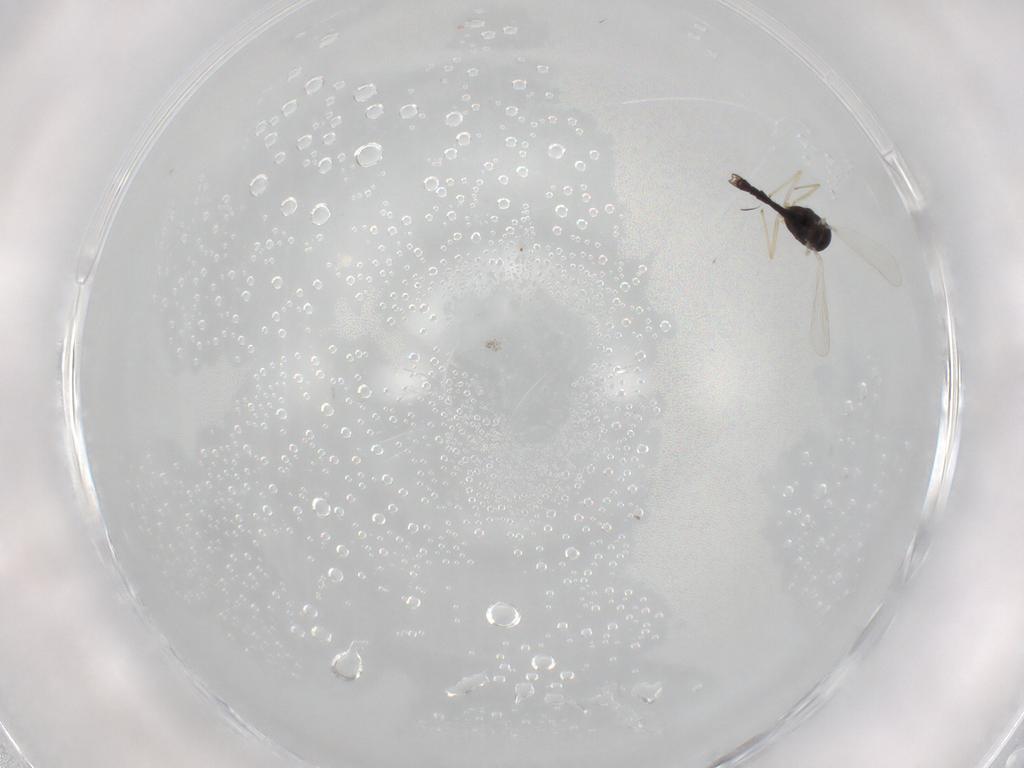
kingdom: Animalia
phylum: Arthropoda
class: Insecta
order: Diptera
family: Chironomidae
